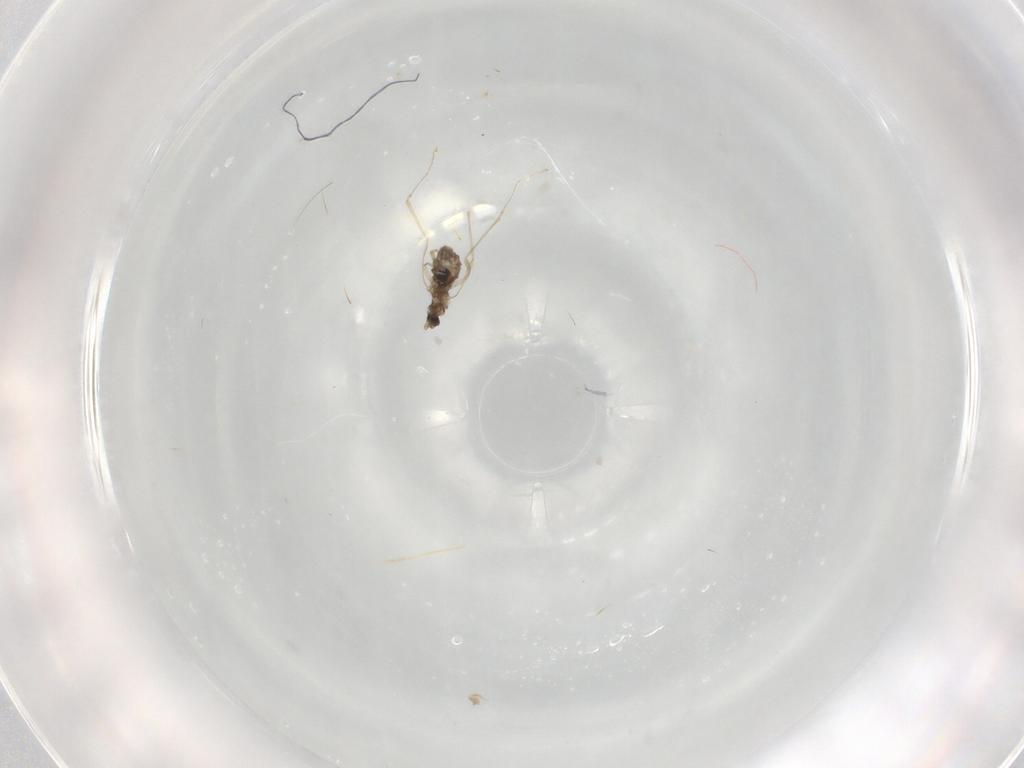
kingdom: Animalia
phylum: Arthropoda
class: Insecta
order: Diptera
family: Cecidomyiidae
